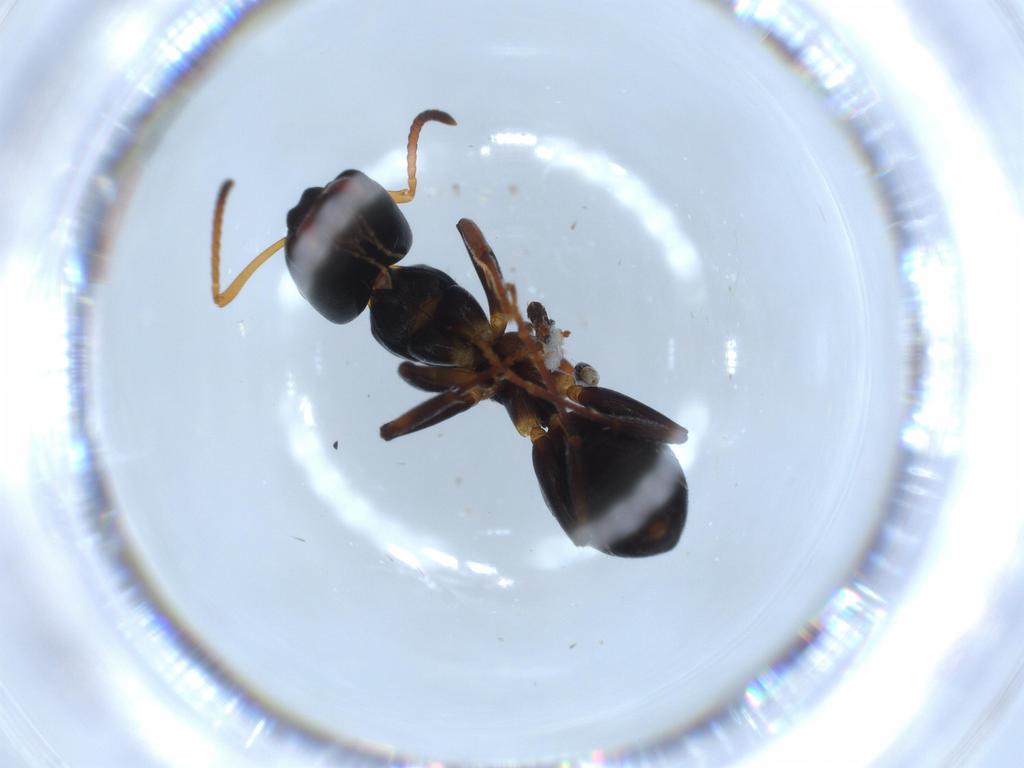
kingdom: Animalia
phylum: Arthropoda
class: Insecta
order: Hymenoptera
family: Formicidae
